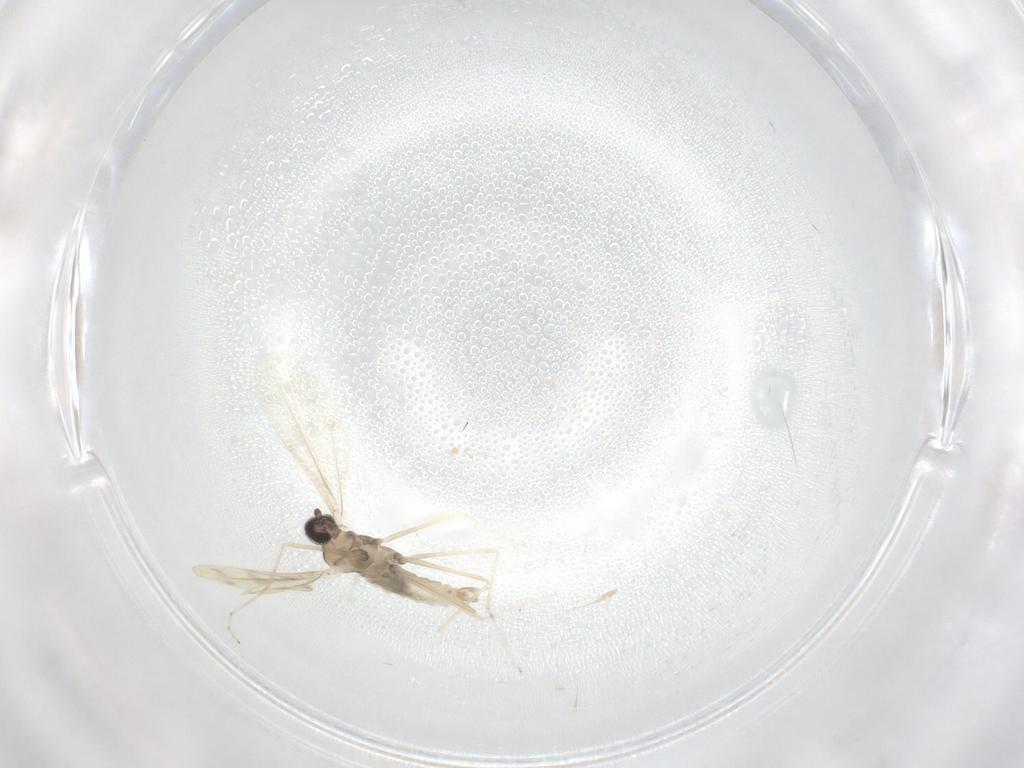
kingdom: Animalia
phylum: Arthropoda
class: Insecta
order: Diptera
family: Cecidomyiidae
